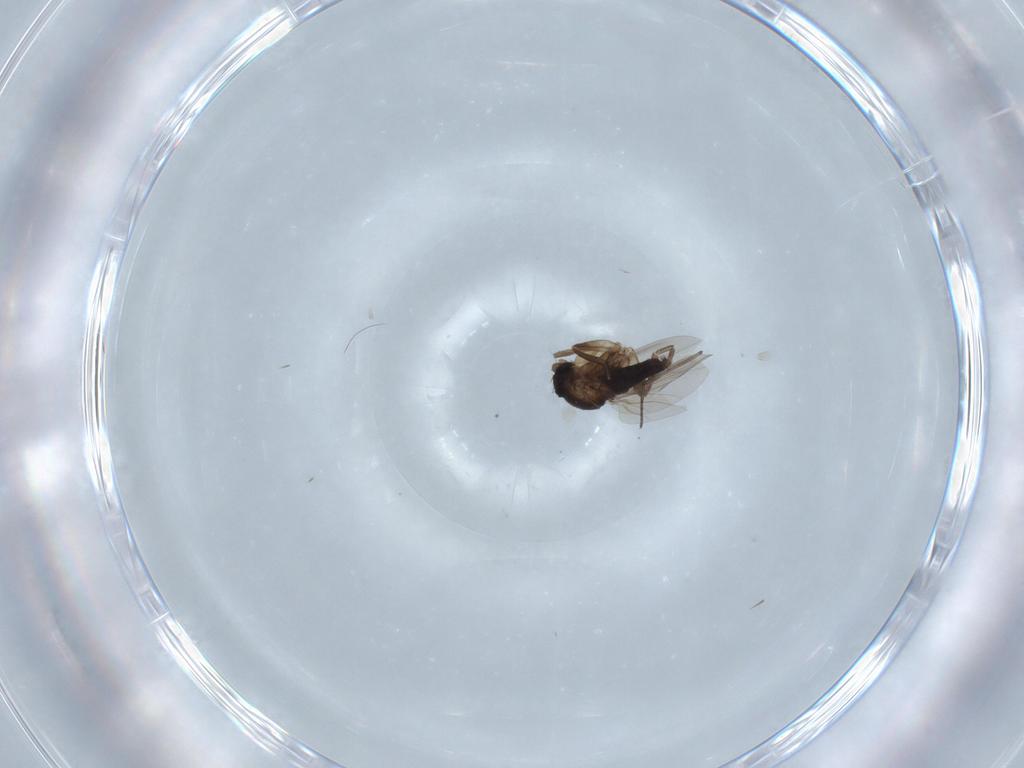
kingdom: Animalia
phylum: Arthropoda
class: Insecta
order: Diptera
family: Phoridae
